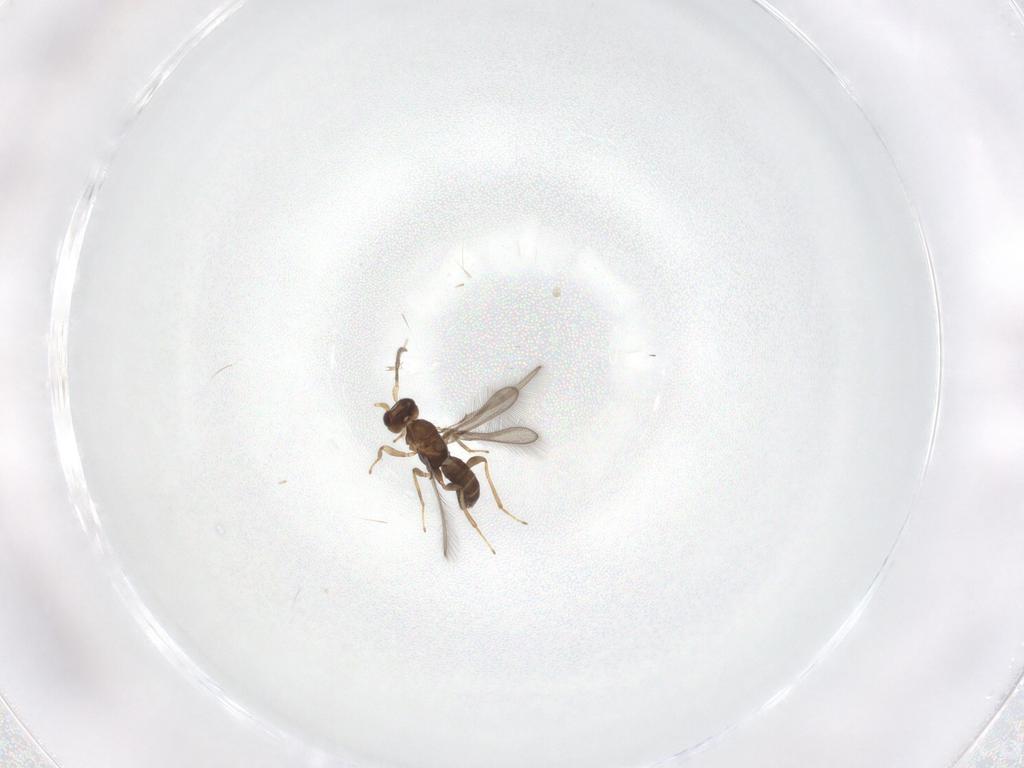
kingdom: Animalia
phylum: Arthropoda
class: Insecta
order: Hymenoptera
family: Mymaridae
